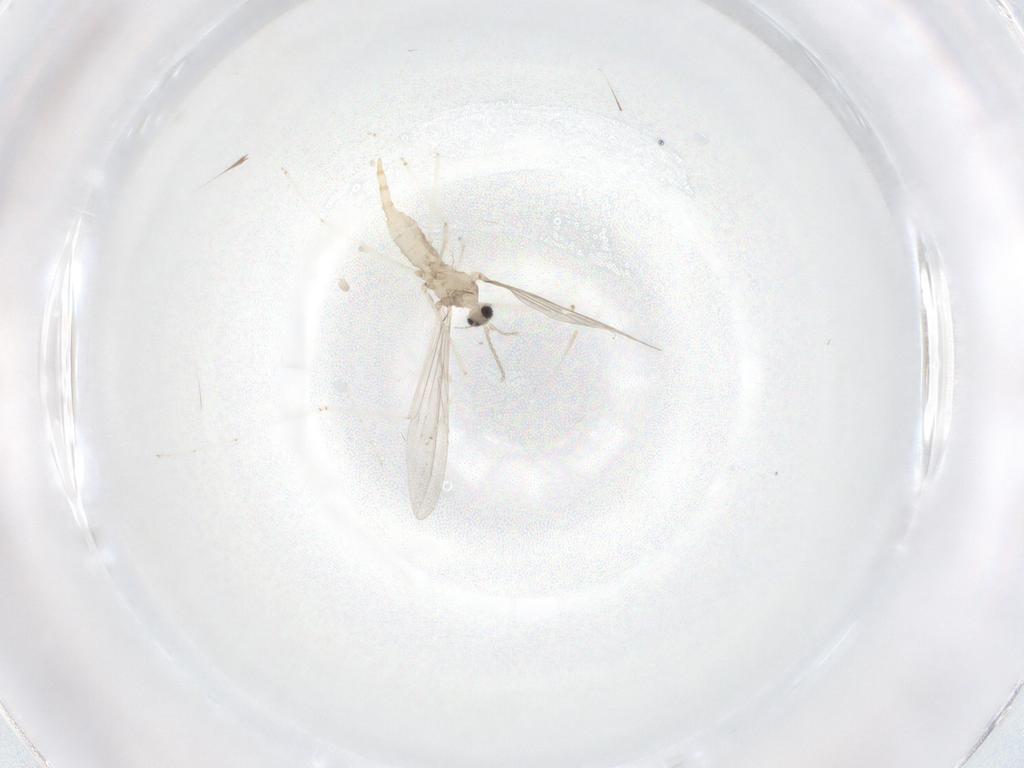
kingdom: Animalia
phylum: Arthropoda
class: Insecta
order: Diptera
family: Cecidomyiidae
